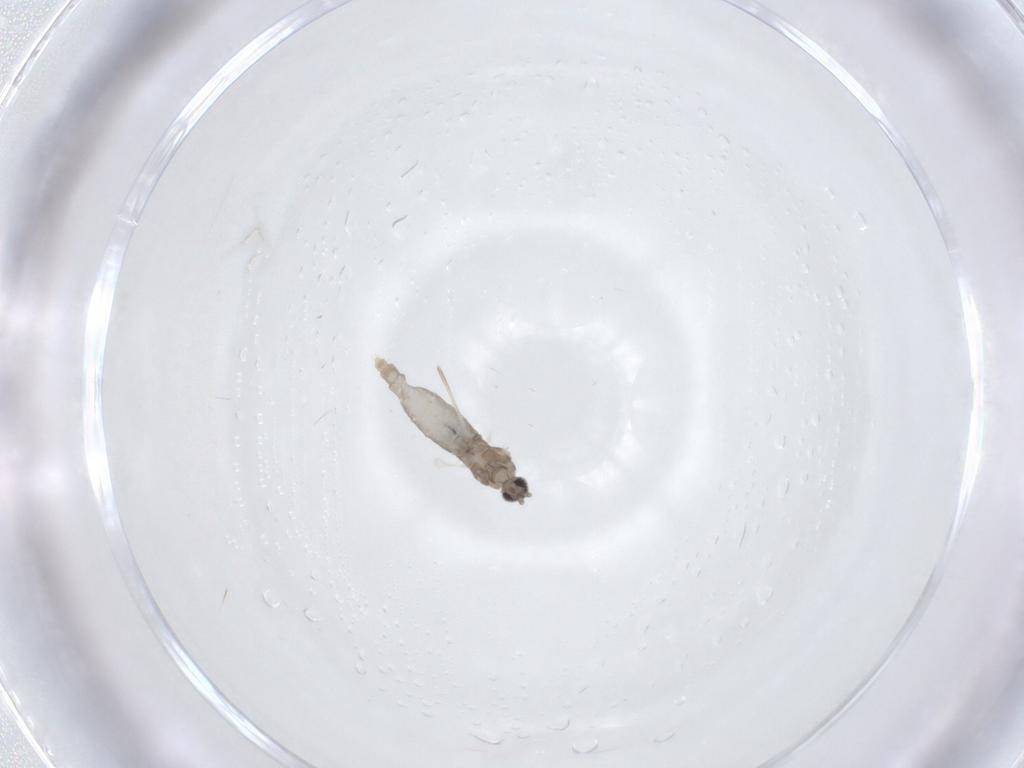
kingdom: Animalia
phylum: Arthropoda
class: Insecta
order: Diptera
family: Cecidomyiidae
